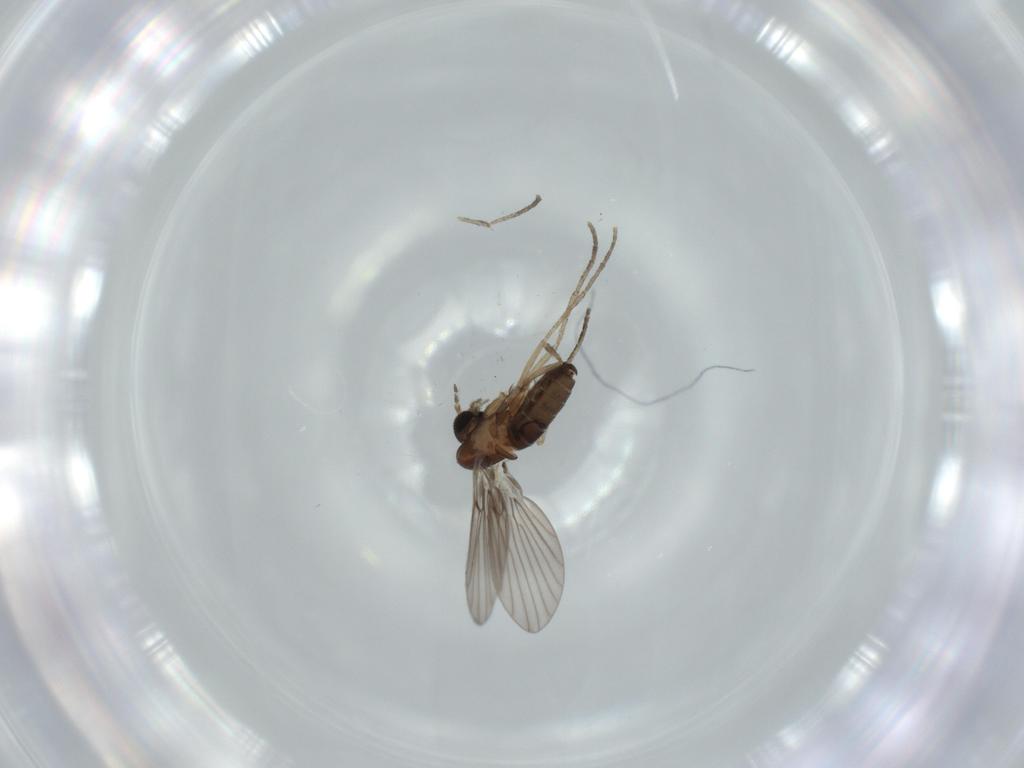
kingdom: Animalia
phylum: Arthropoda
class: Insecta
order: Diptera
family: Psychodidae
